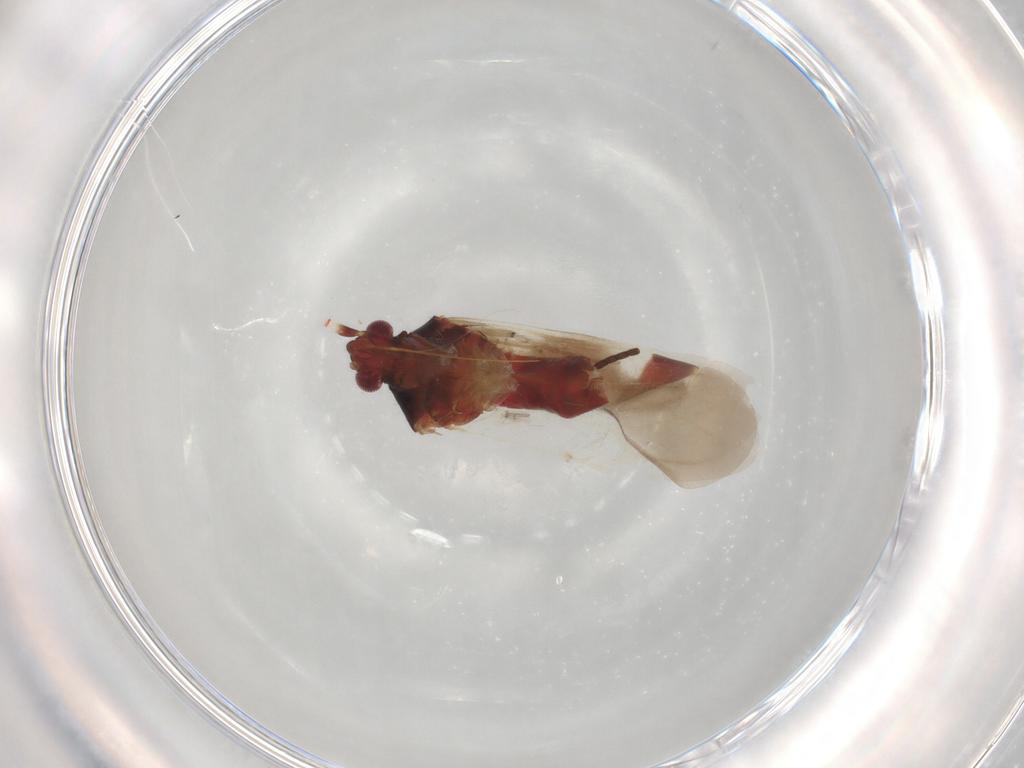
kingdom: Animalia
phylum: Arthropoda
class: Insecta
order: Hemiptera
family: Miridae
